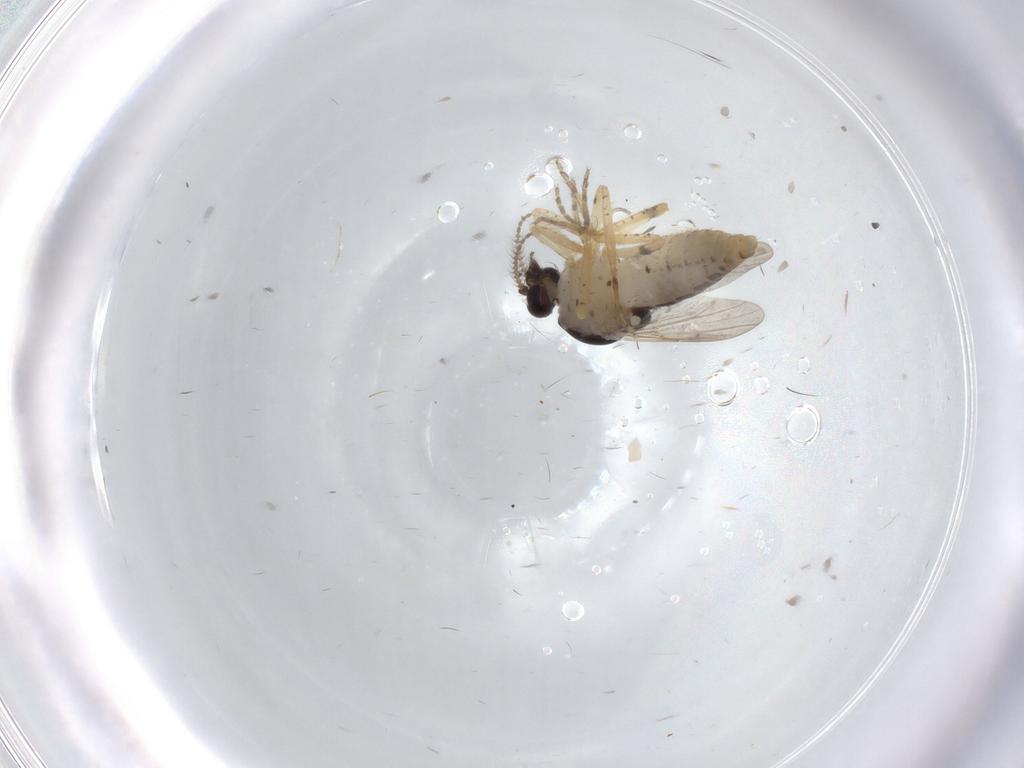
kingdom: Animalia
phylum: Arthropoda
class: Insecta
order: Diptera
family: Ceratopogonidae
